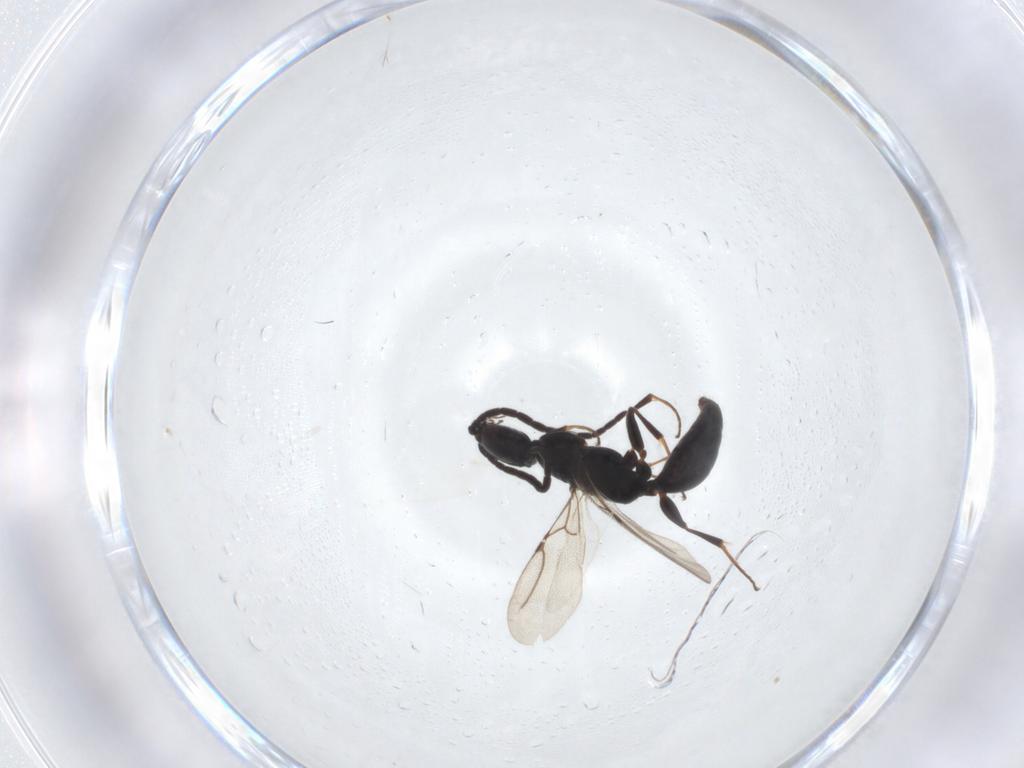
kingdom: Animalia
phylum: Arthropoda
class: Insecta
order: Hymenoptera
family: Bethylidae
